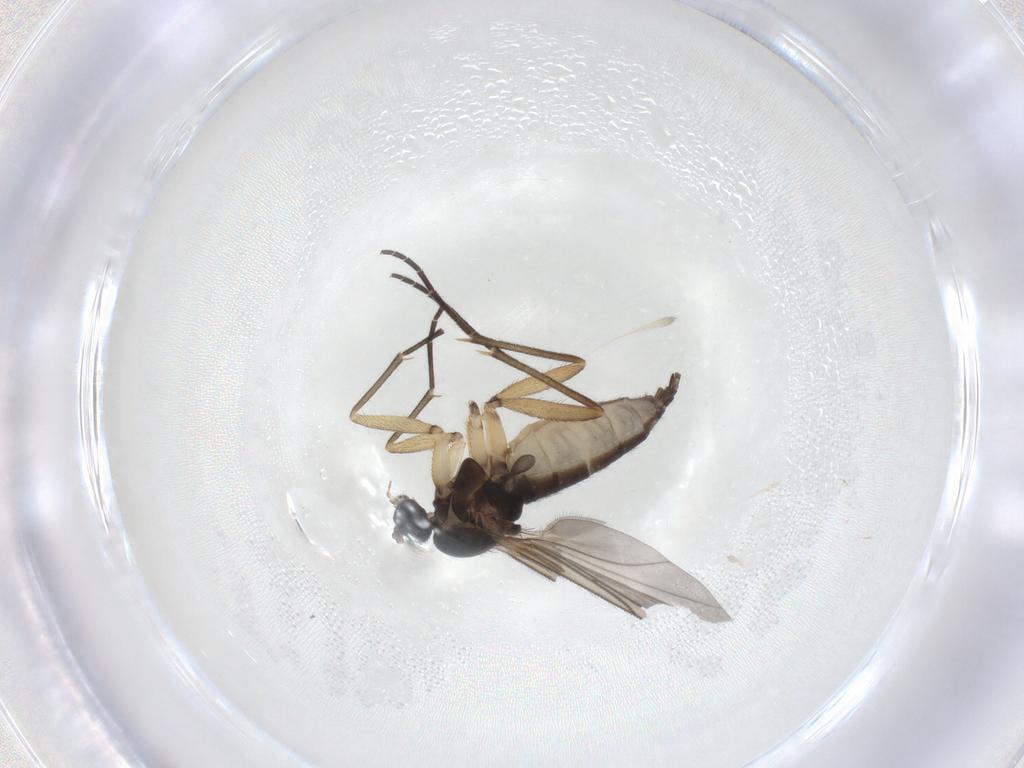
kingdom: Animalia
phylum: Arthropoda
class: Insecta
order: Diptera
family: Sciaridae
